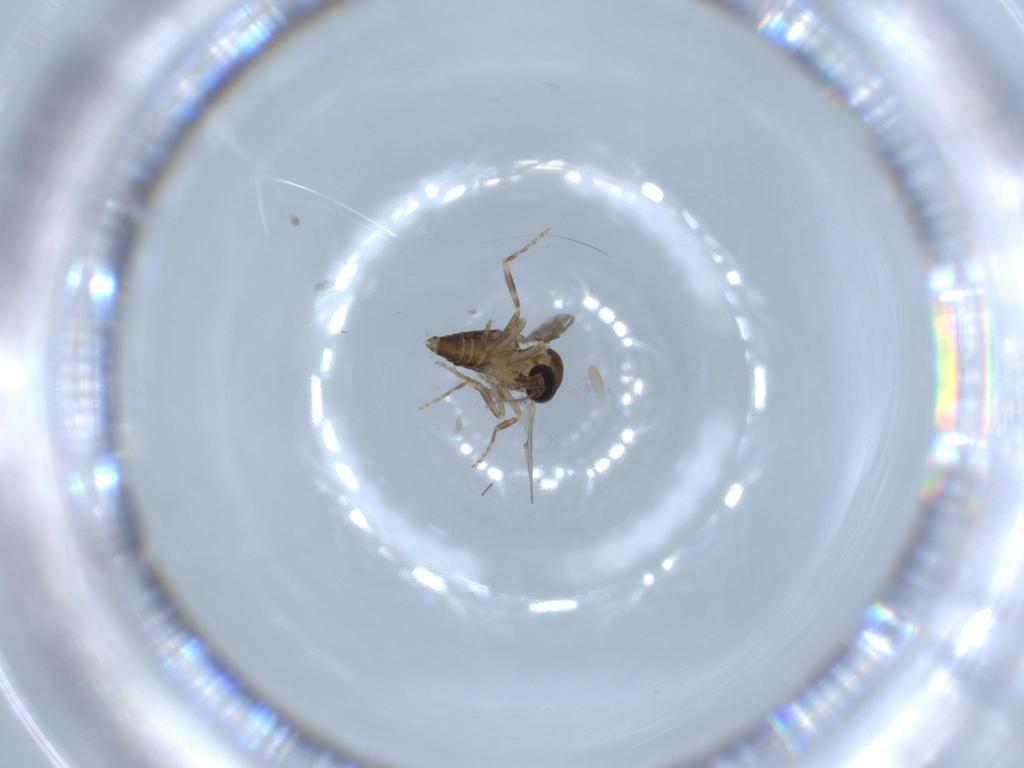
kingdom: Animalia
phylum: Arthropoda
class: Insecta
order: Diptera
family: Ceratopogonidae
